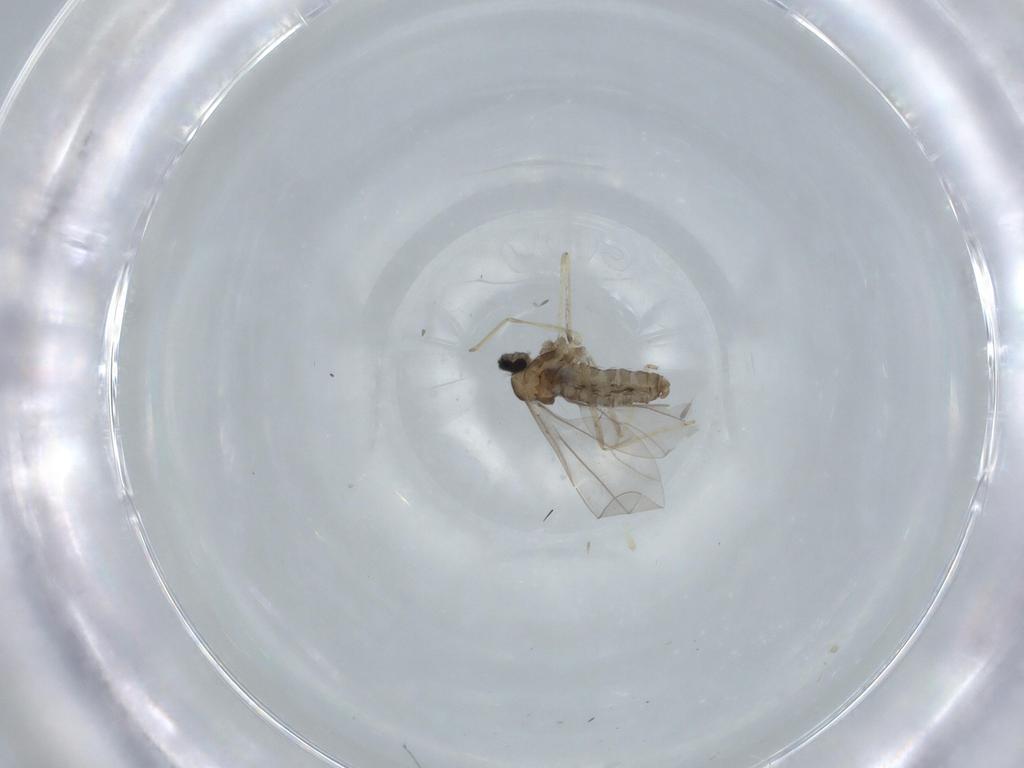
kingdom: Animalia
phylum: Arthropoda
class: Insecta
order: Diptera
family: Cecidomyiidae
